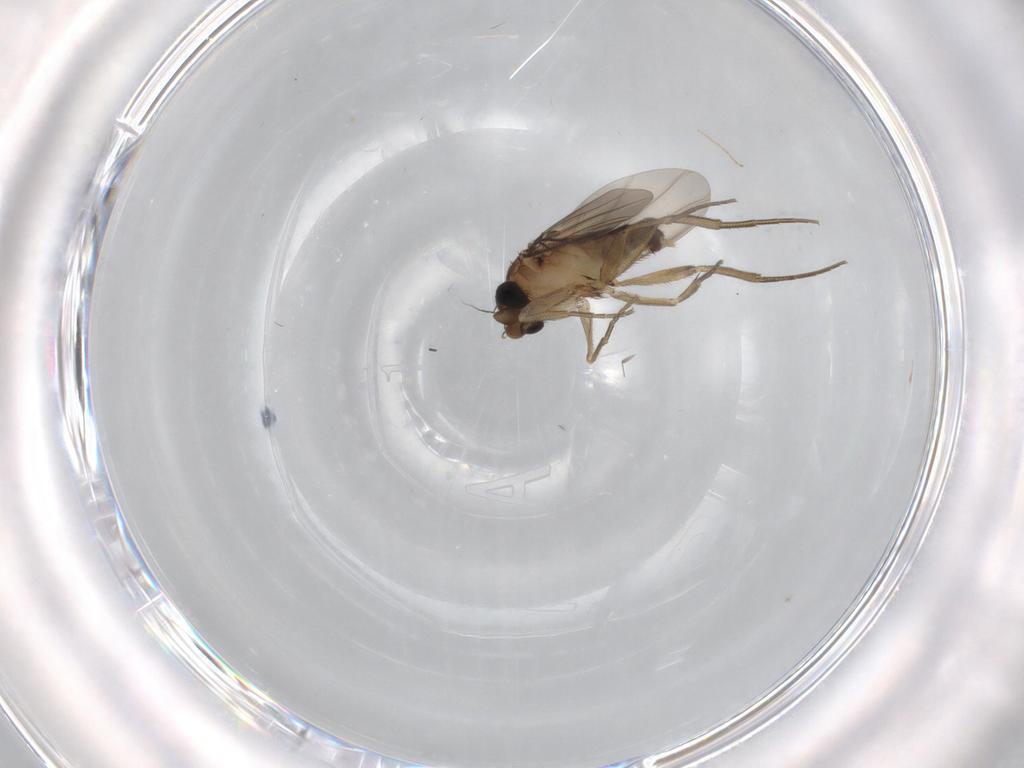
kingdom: Animalia
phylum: Arthropoda
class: Insecta
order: Diptera
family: Phoridae
